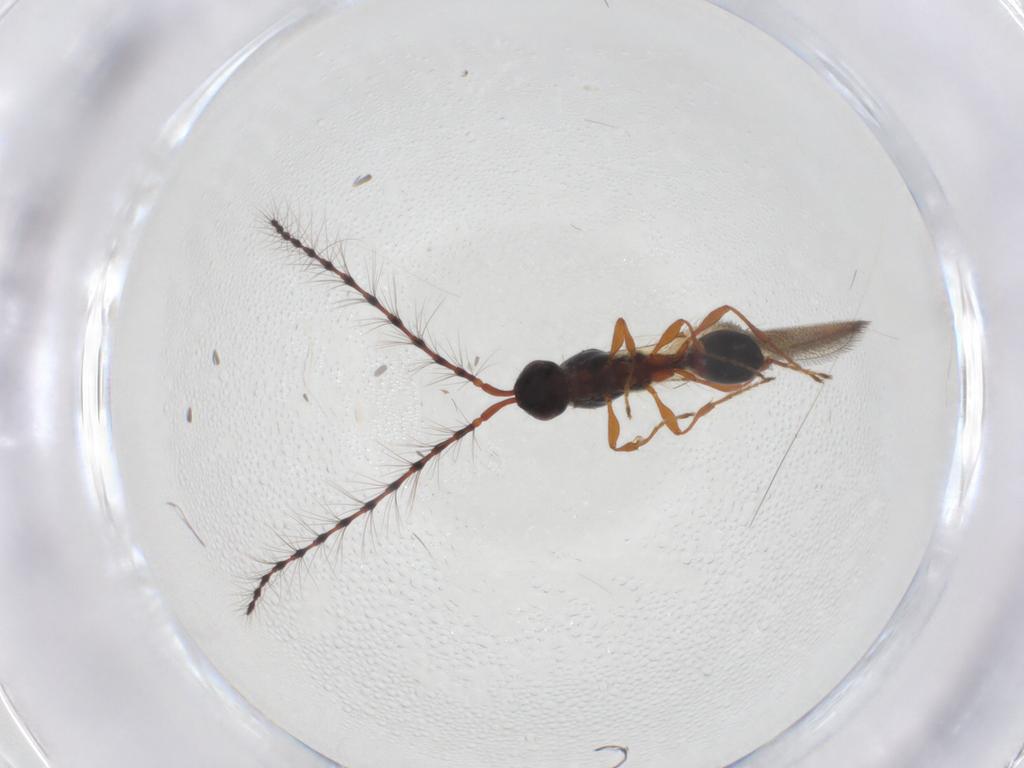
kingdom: Animalia
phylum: Arthropoda
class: Insecta
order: Hymenoptera
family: Diapriidae
